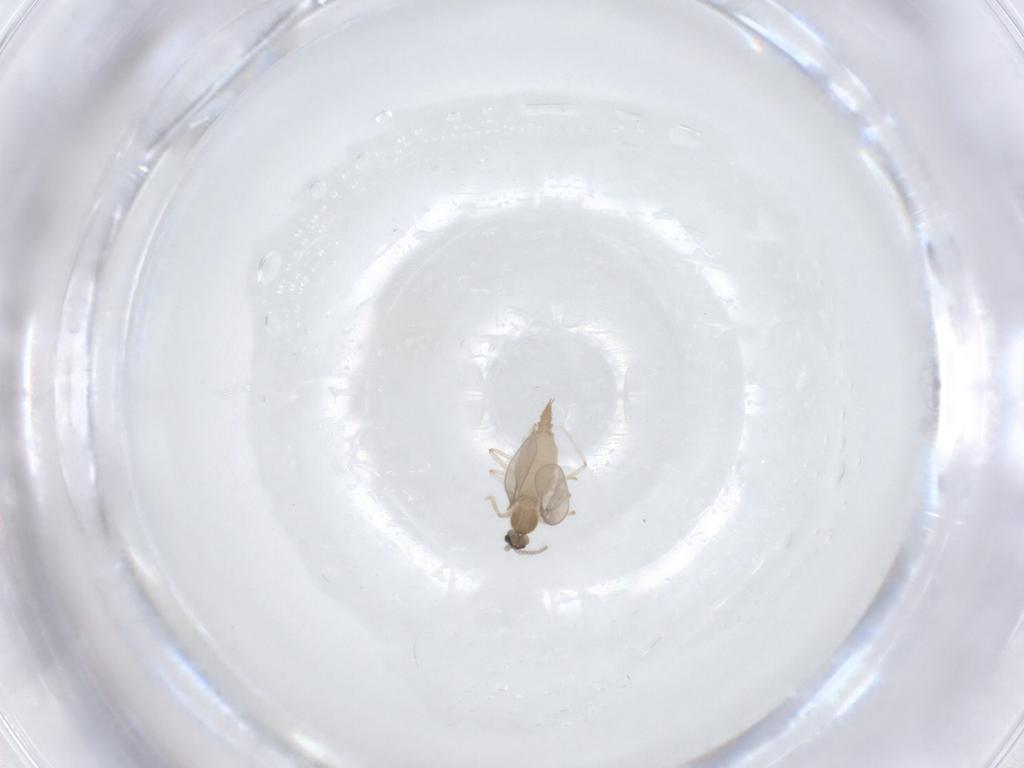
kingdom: Animalia
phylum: Arthropoda
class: Insecta
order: Diptera
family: Cecidomyiidae
